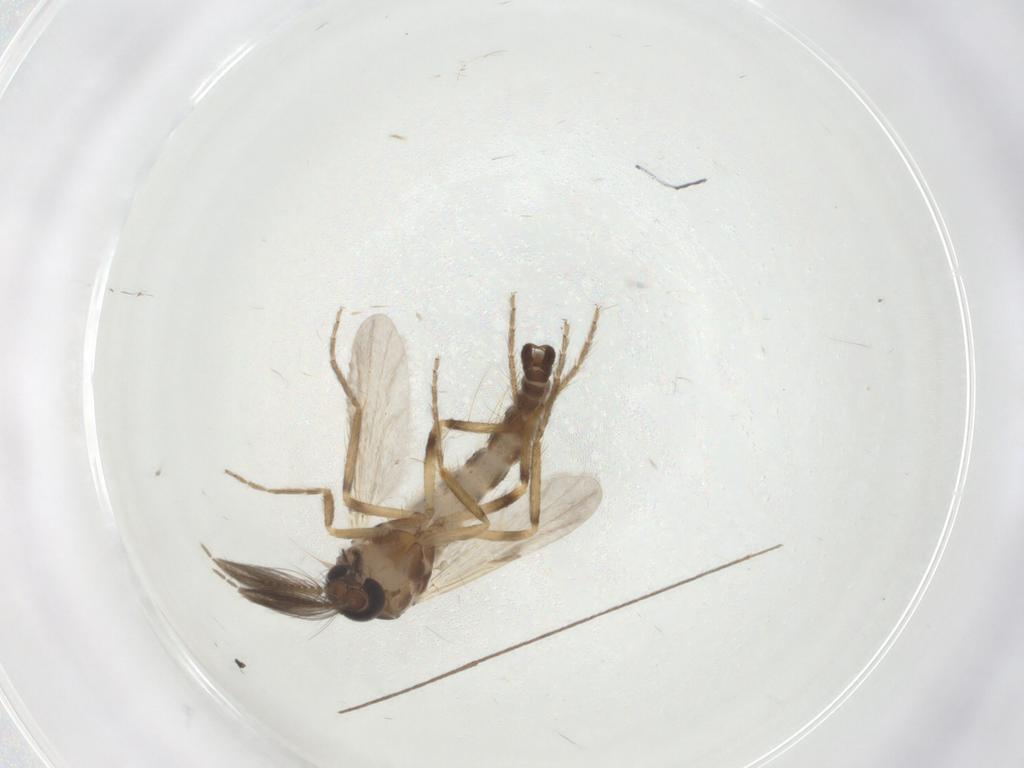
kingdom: Animalia
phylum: Arthropoda
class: Insecta
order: Diptera
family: Ceratopogonidae
